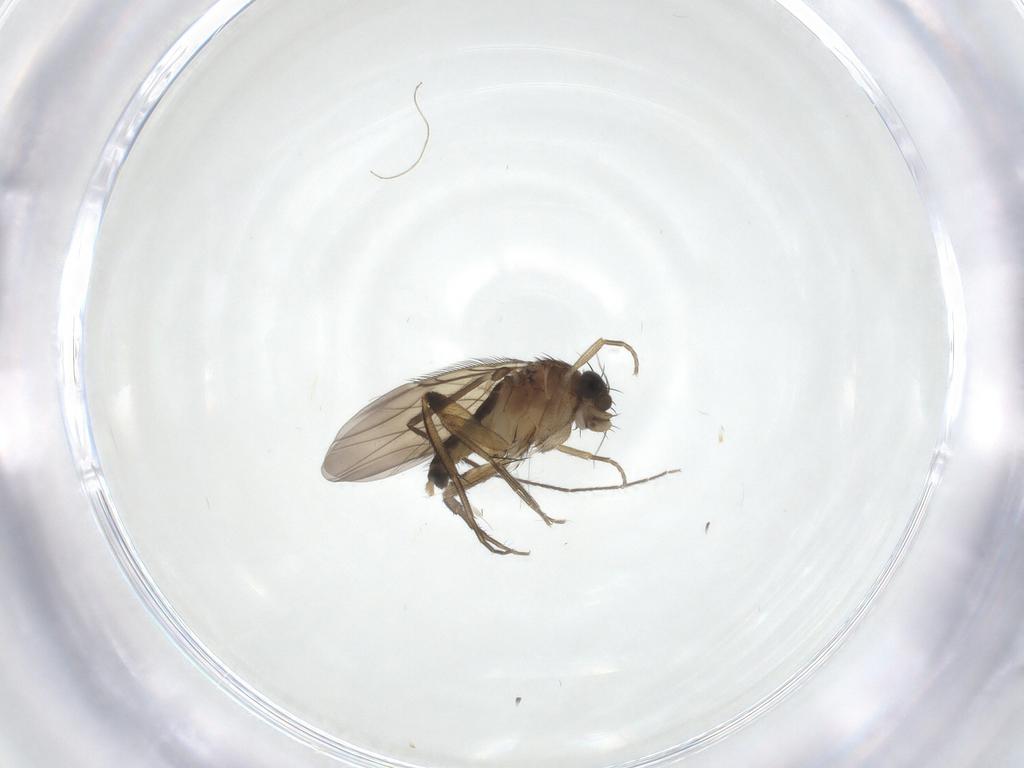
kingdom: Animalia
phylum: Arthropoda
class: Insecta
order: Diptera
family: Phoridae
